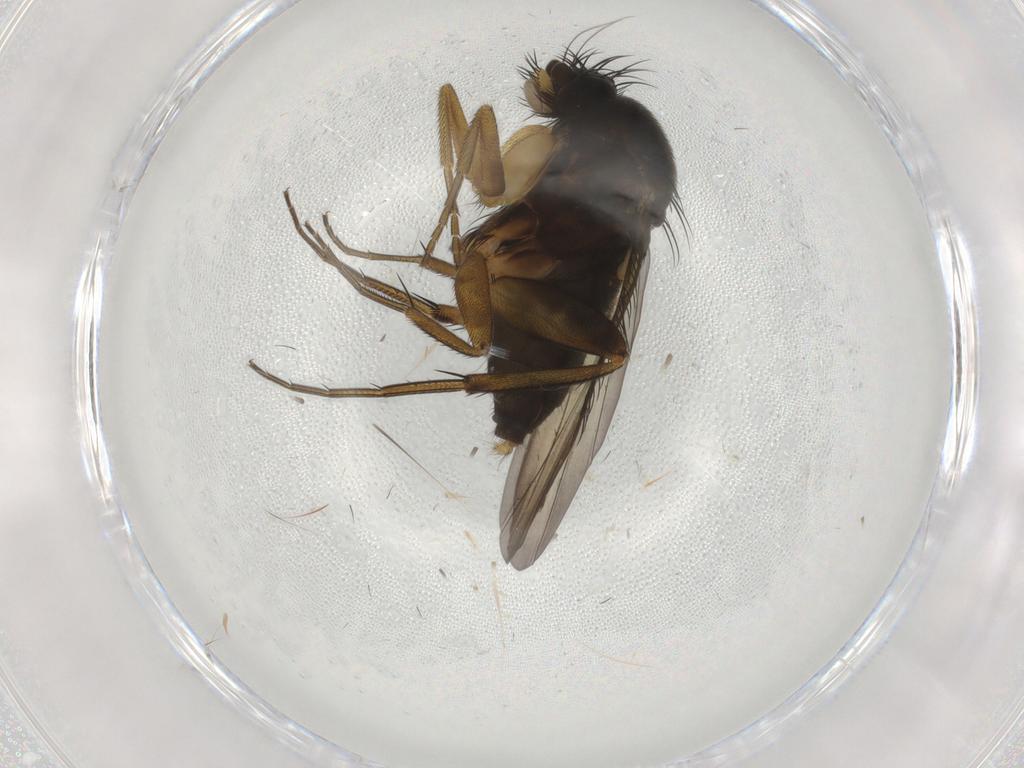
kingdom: Animalia
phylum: Arthropoda
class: Insecta
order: Diptera
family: Phoridae
